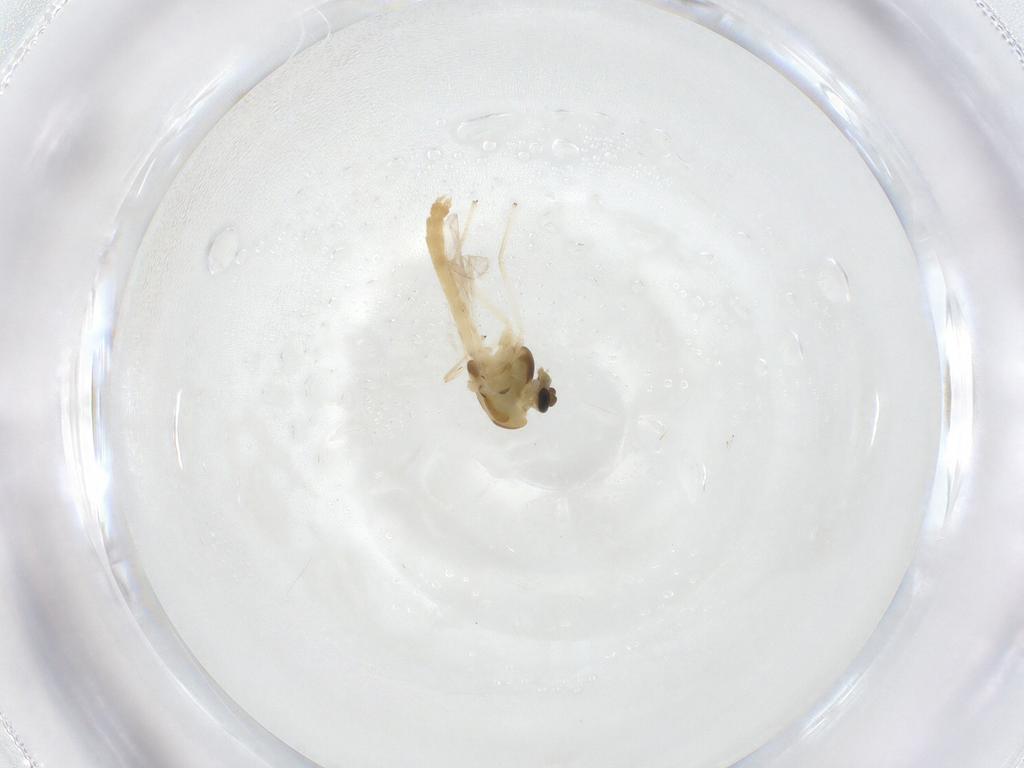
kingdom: Animalia
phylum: Arthropoda
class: Insecta
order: Diptera
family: Chironomidae
